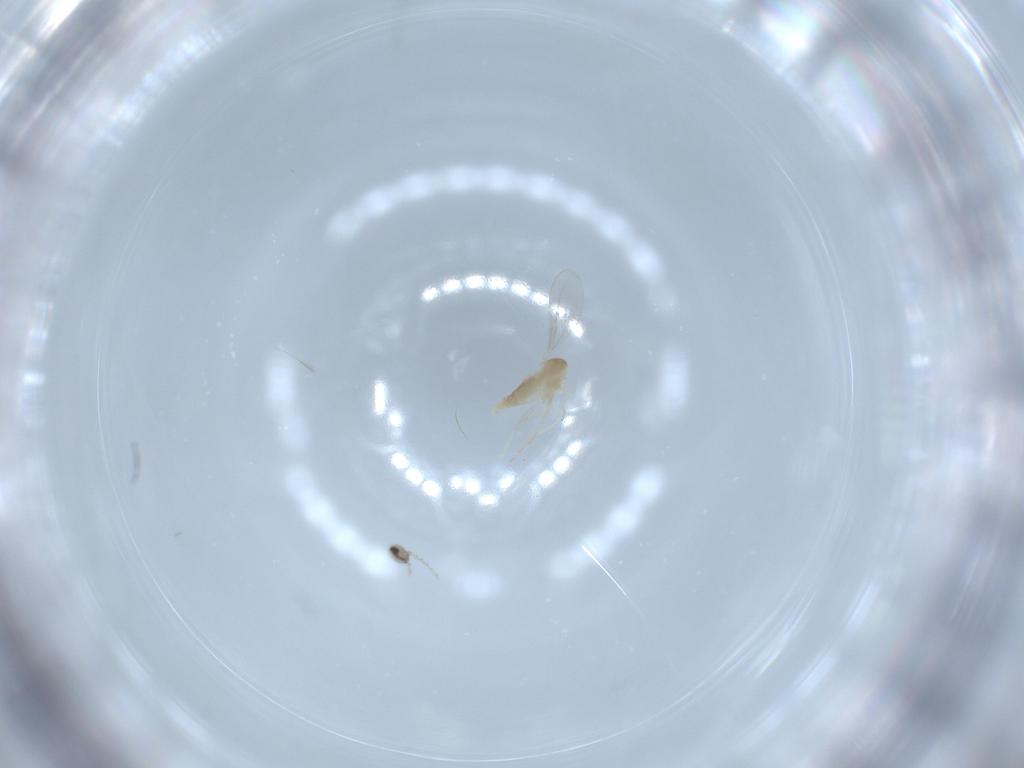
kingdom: Animalia
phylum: Arthropoda
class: Insecta
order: Diptera
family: Cecidomyiidae
